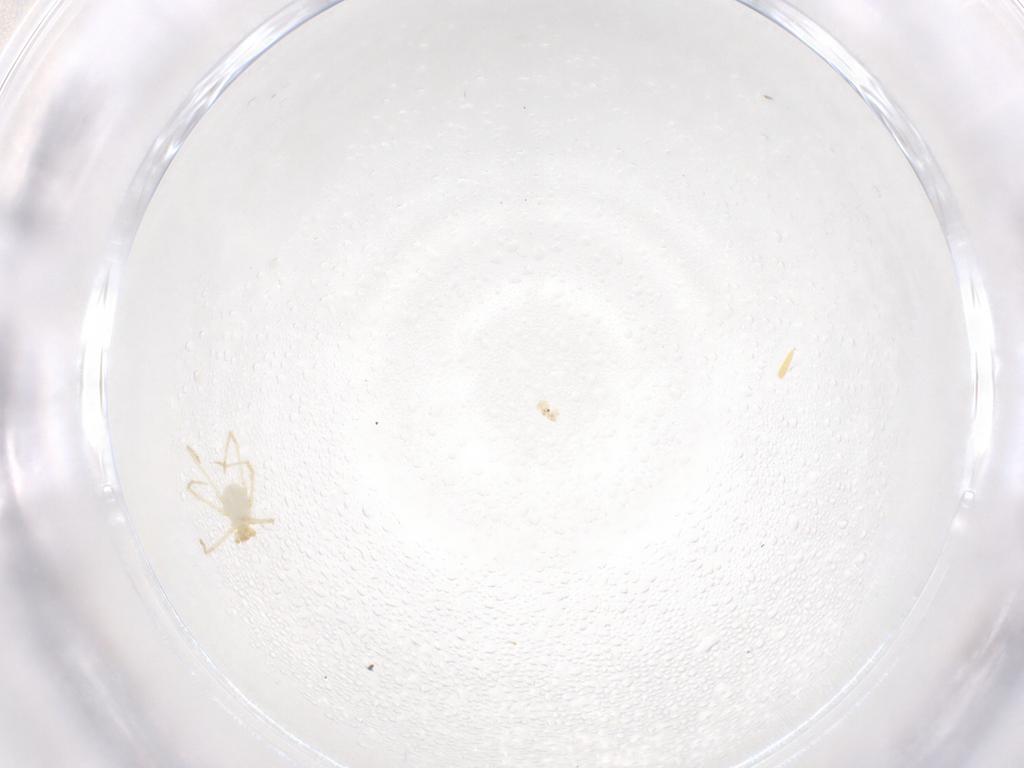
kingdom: Animalia
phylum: Arthropoda
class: Arachnida
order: Trombidiformes
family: Erythraeidae
